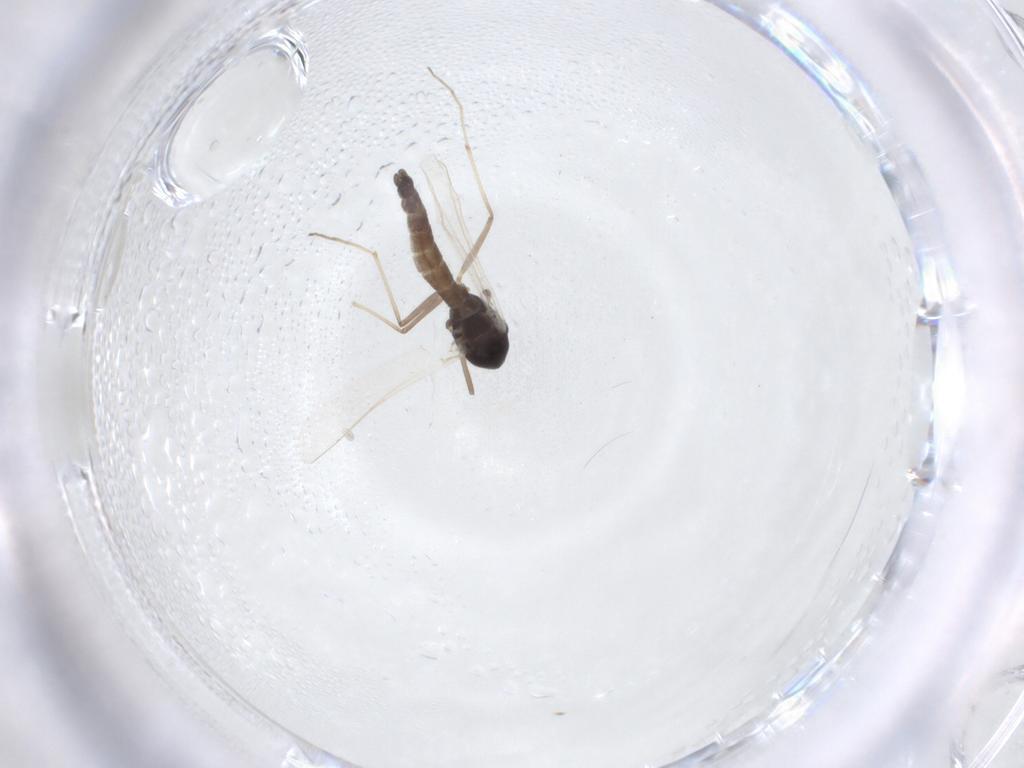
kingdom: Animalia
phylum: Arthropoda
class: Insecta
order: Diptera
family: Chironomidae
